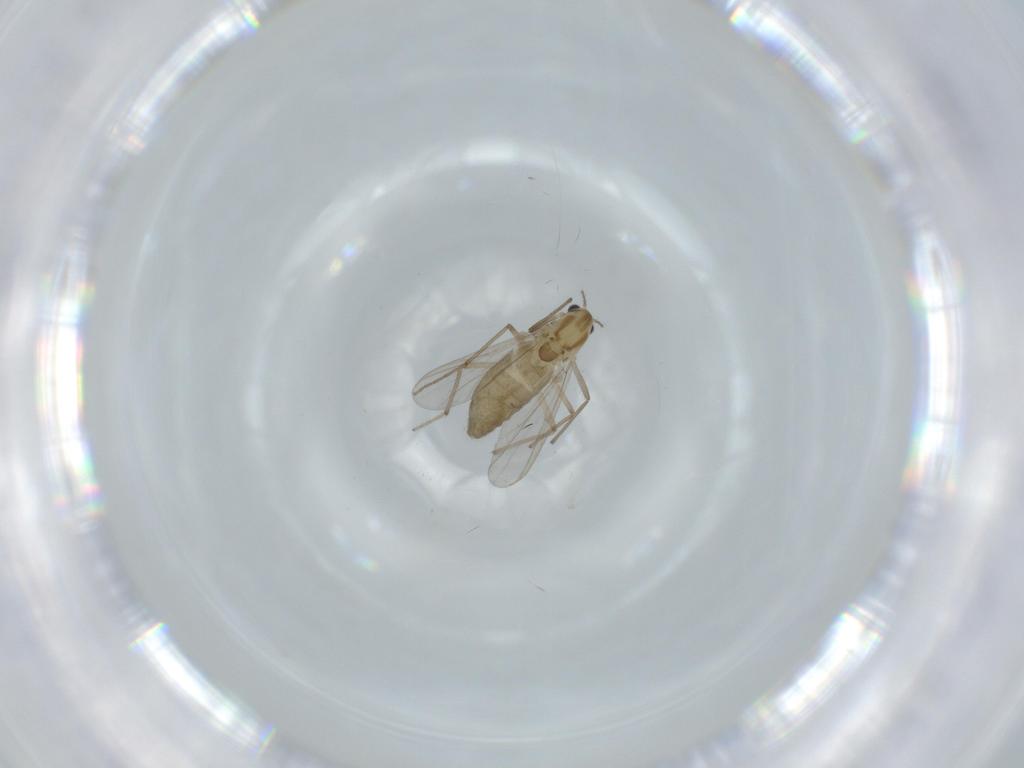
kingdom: Animalia
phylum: Arthropoda
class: Insecta
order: Diptera
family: Chironomidae
